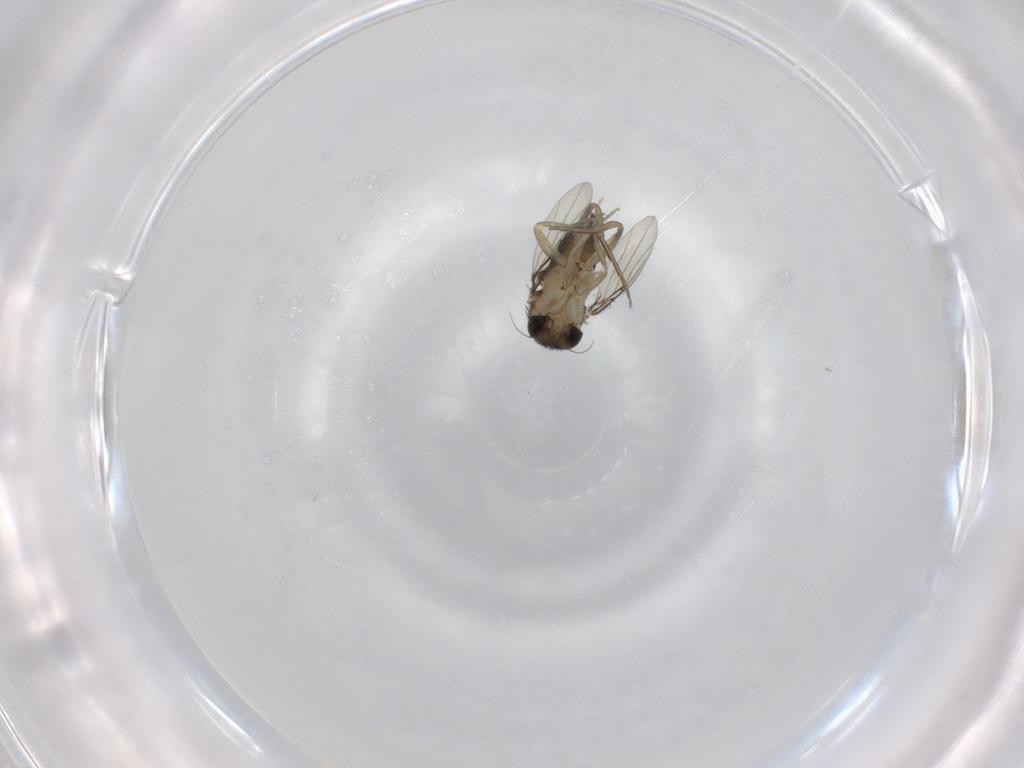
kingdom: Animalia
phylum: Arthropoda
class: Insecta
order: Diptera
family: Phoridae
